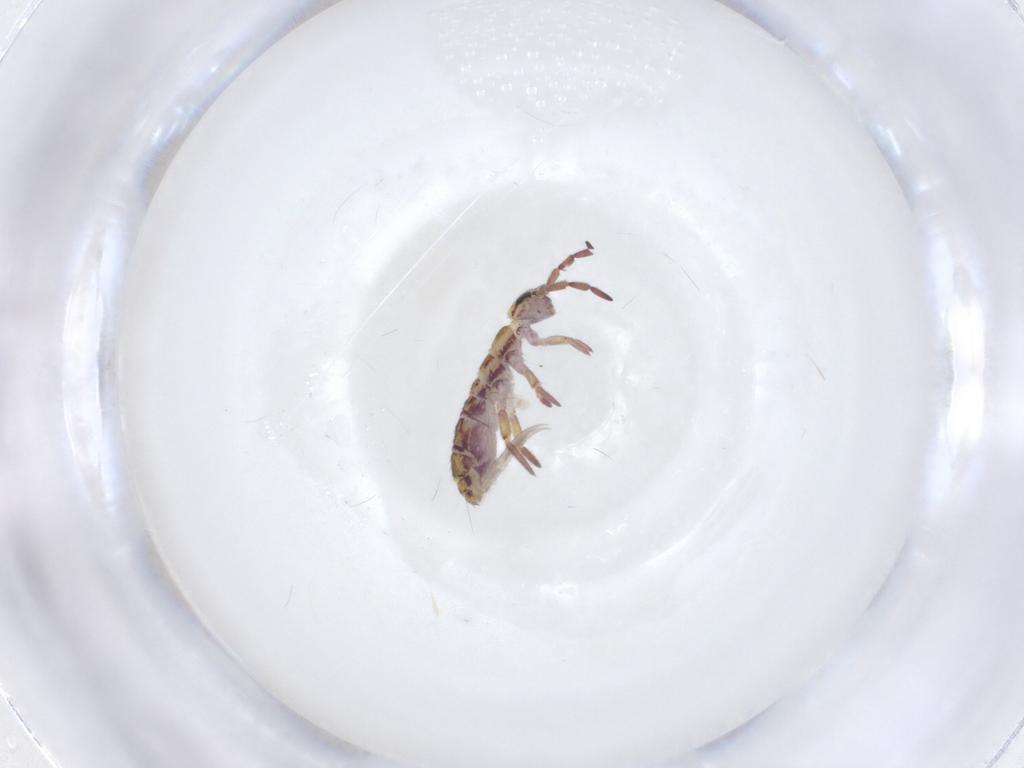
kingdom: Animalia
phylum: Arthropoda
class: Collembola
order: Entomobryomorpha
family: Isotomidae
